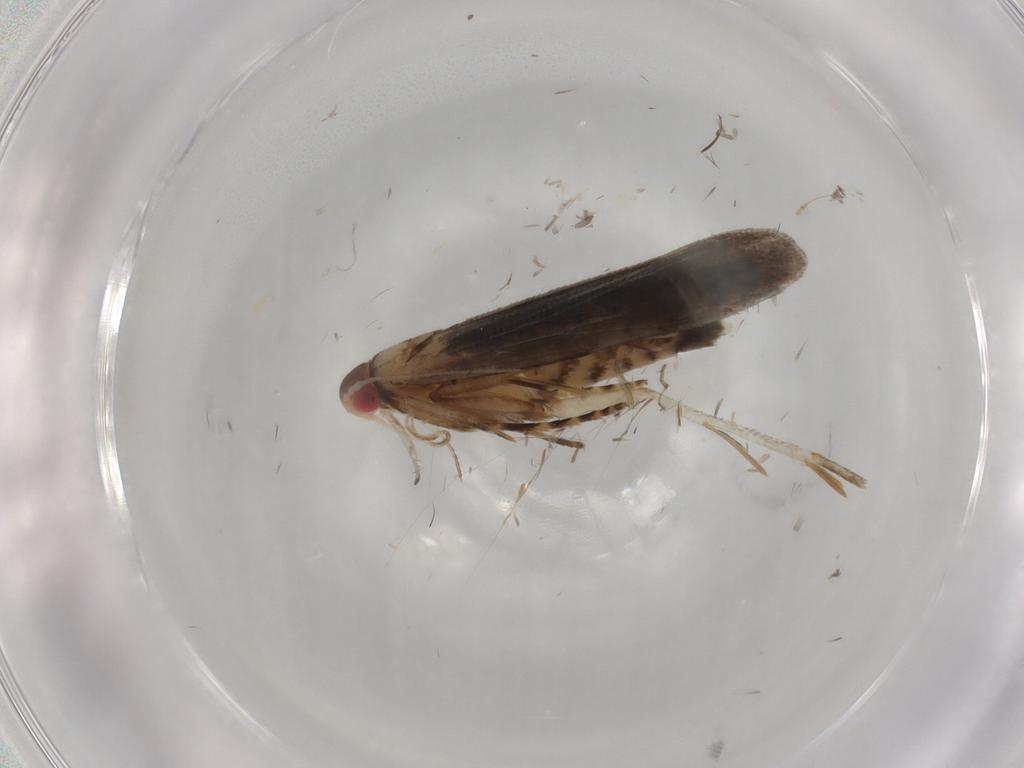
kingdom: Animalia
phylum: Arthropoda
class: Insecta
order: Lepidoptera
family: Gelechiidae
